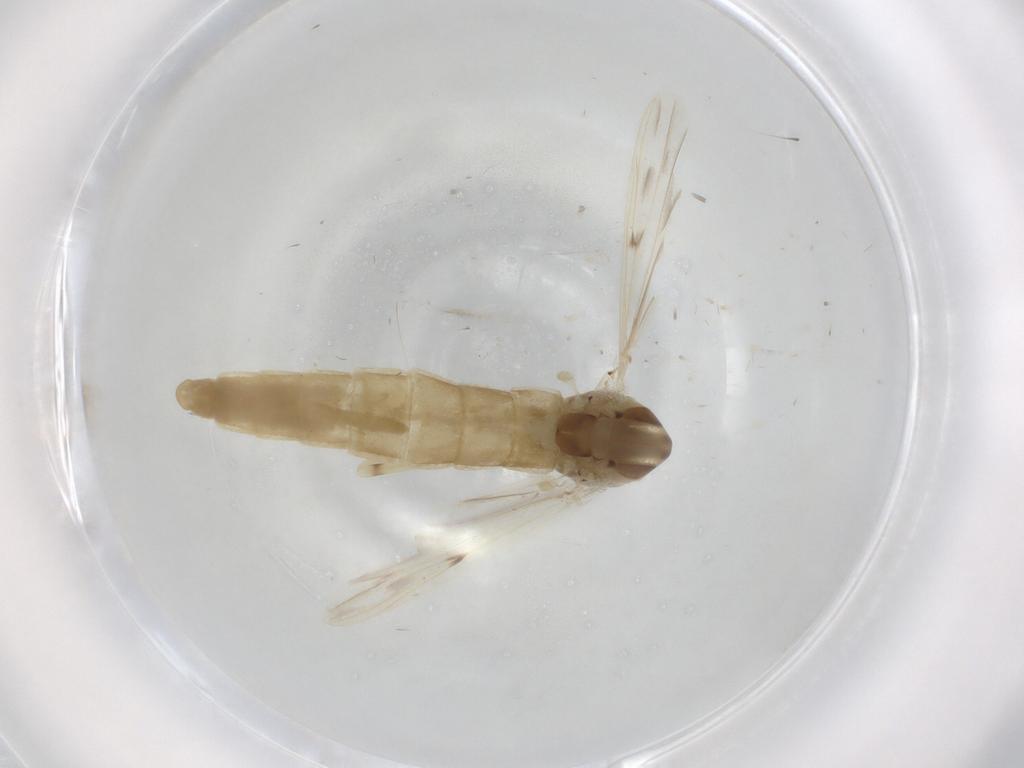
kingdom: Animalia
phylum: Arthropoda
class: Insecta
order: Diptera
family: Chironomidae
